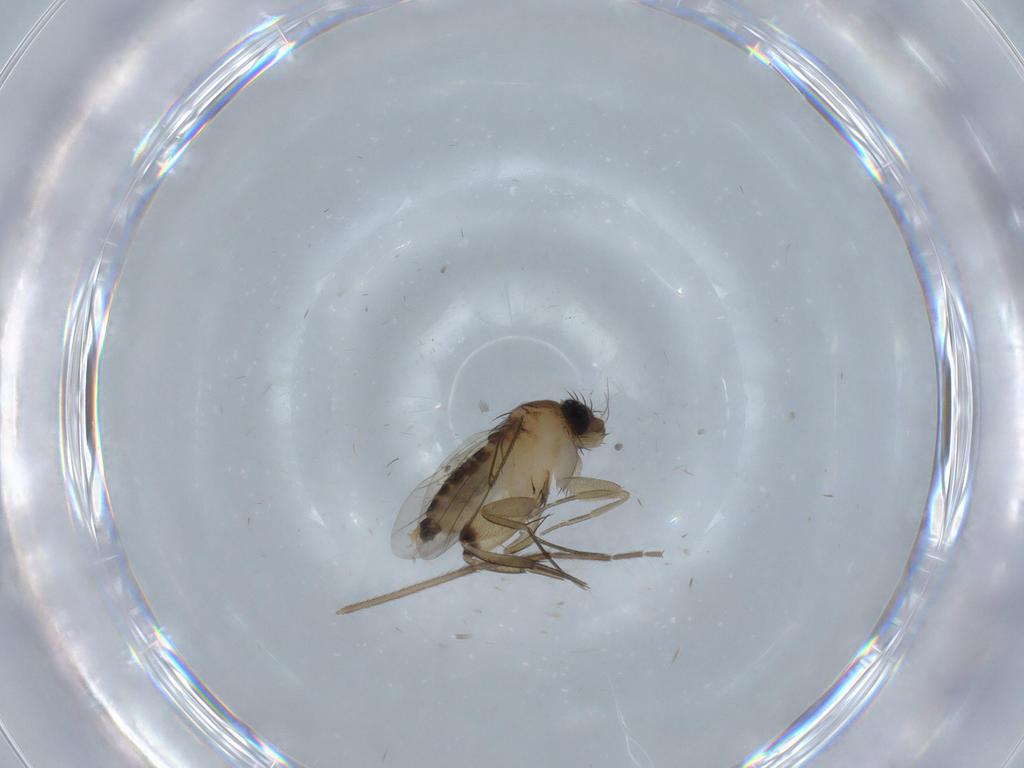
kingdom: Animalia
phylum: Arthropoda
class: Insecta
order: Diptera
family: Phoridae
